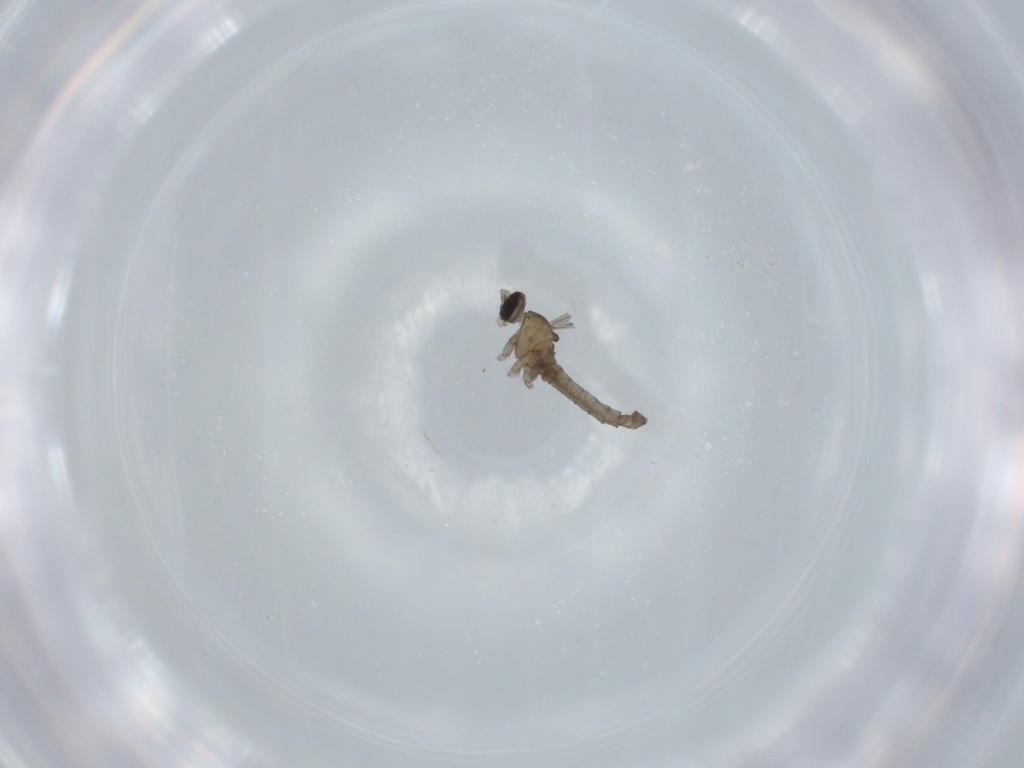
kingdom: Animalia
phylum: Arthropoda
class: Insecta
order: Diptera
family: Cecidomyiidae
